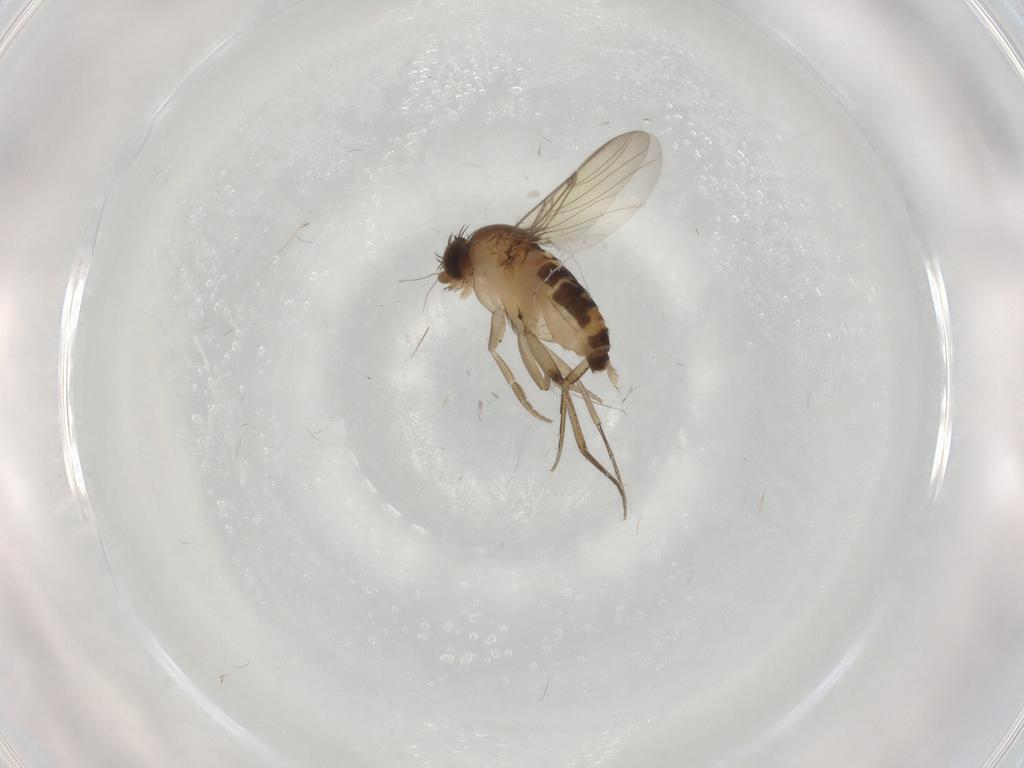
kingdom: Animalia
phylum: Arthropoda
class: Insecta
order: Diptera
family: Phoridae
